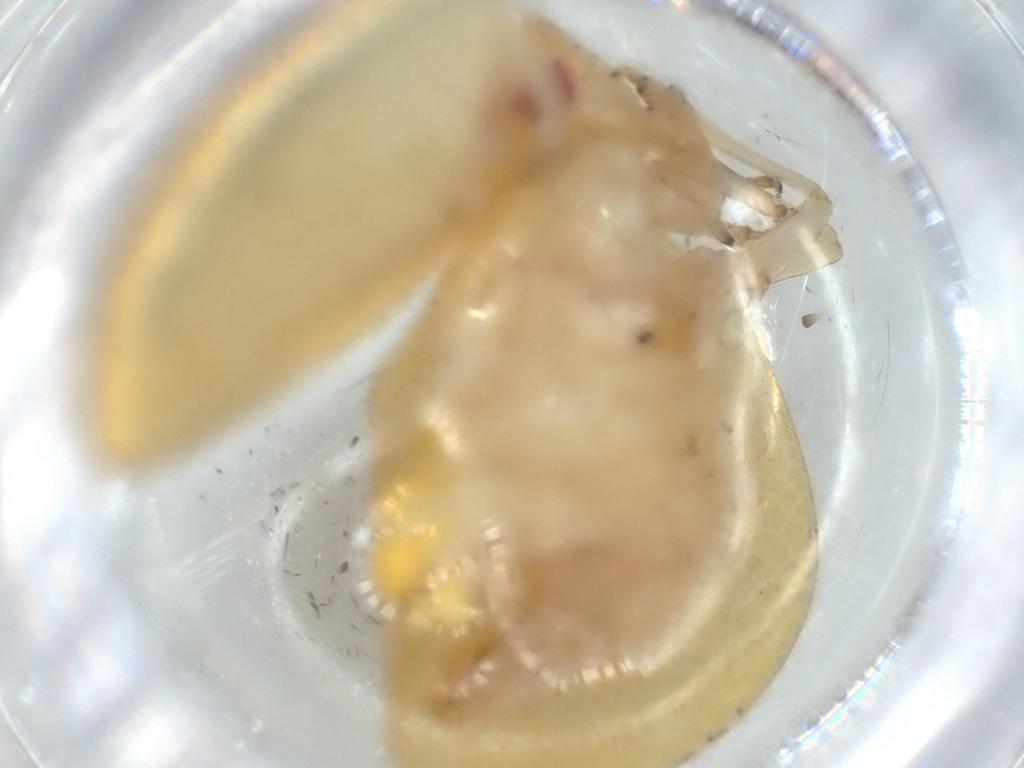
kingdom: Animalia
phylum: Arthropoda
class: Insecta
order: Hemiptera
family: Acanaloniidae
